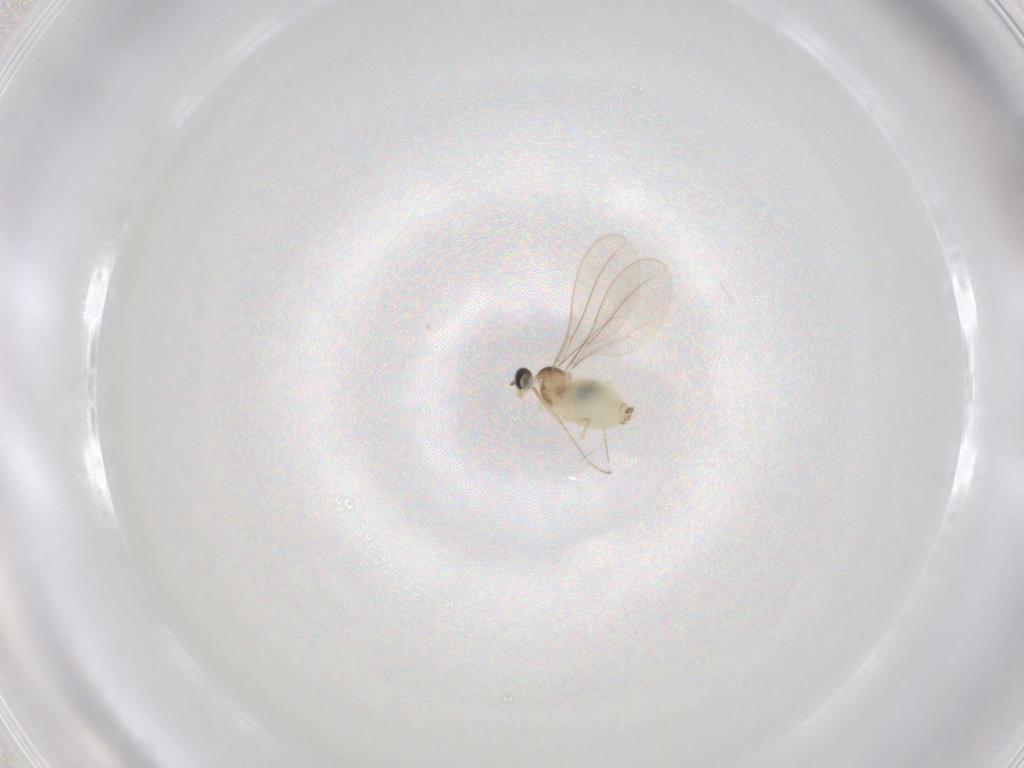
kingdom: Animalia
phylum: Arthropoda
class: Insecta
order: Diptera
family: Cecidomyiidae
